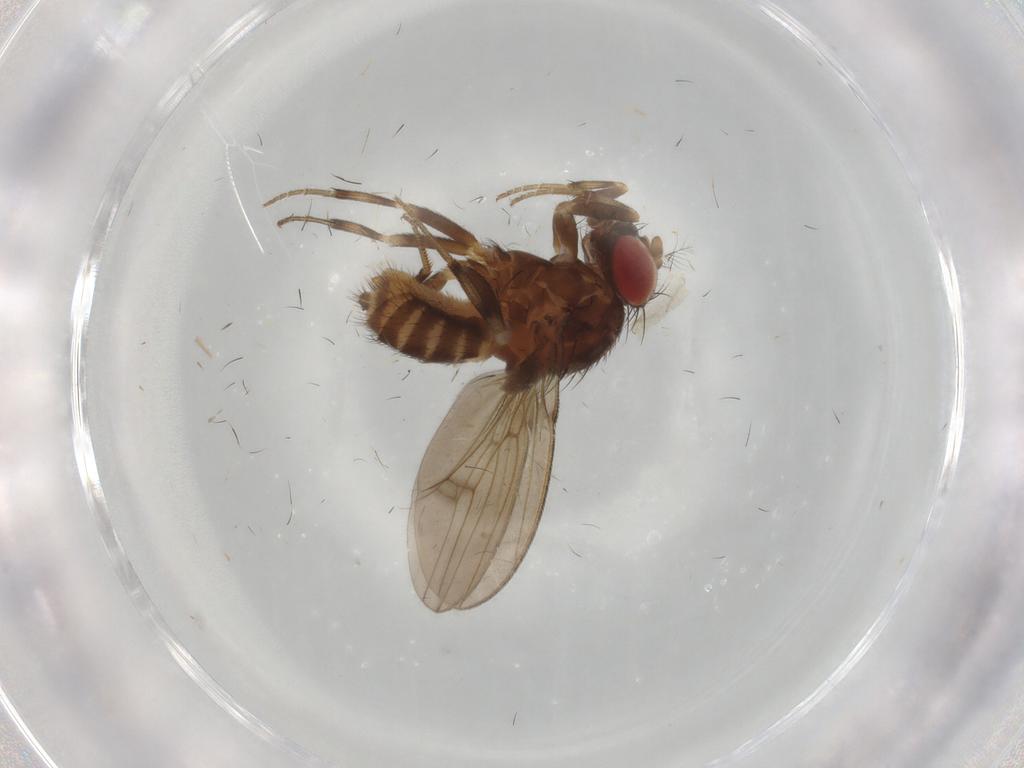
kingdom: Animalia
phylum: Arthropoda
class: Insecta
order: Diptera
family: Drosophilidae
